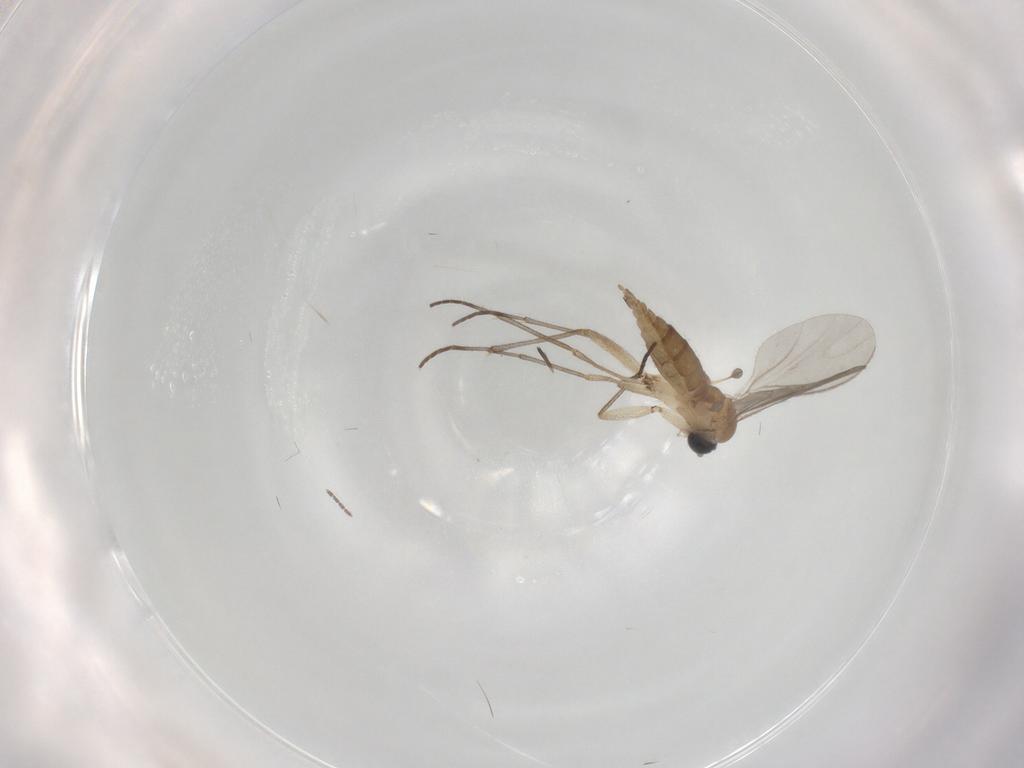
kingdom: Animalia
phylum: Arthropoda
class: Insecta
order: Diptera
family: Sciaridae
